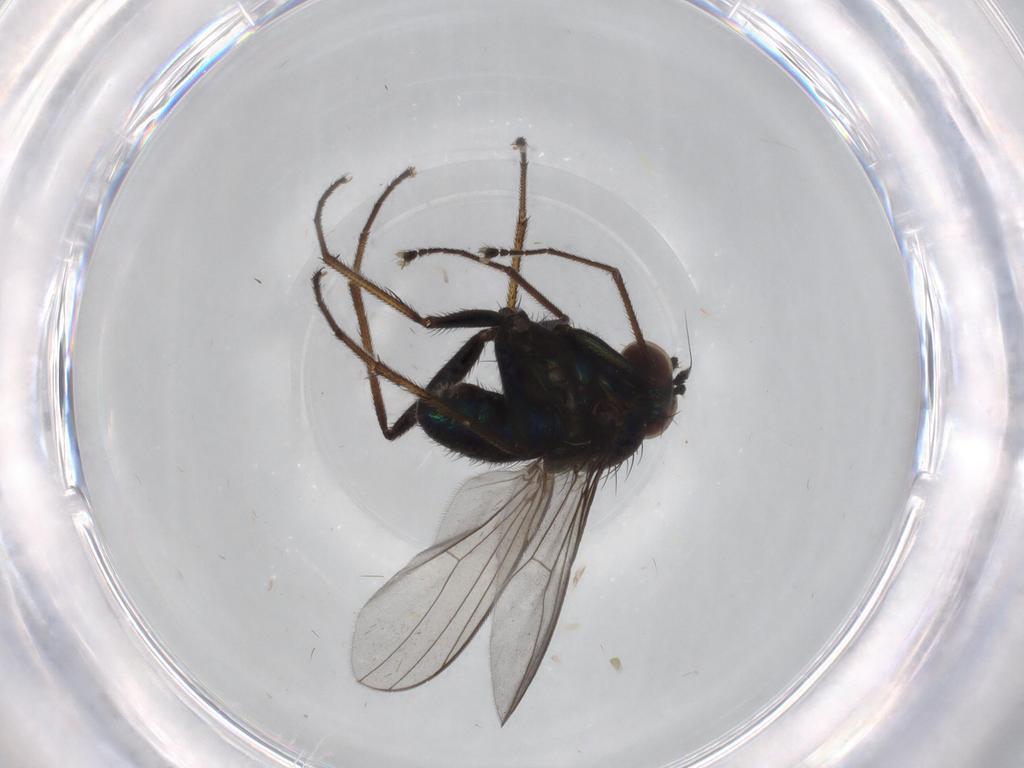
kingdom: Animalia
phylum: Arthropoda
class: Insecta
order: Diptera
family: Dolichopodidae
